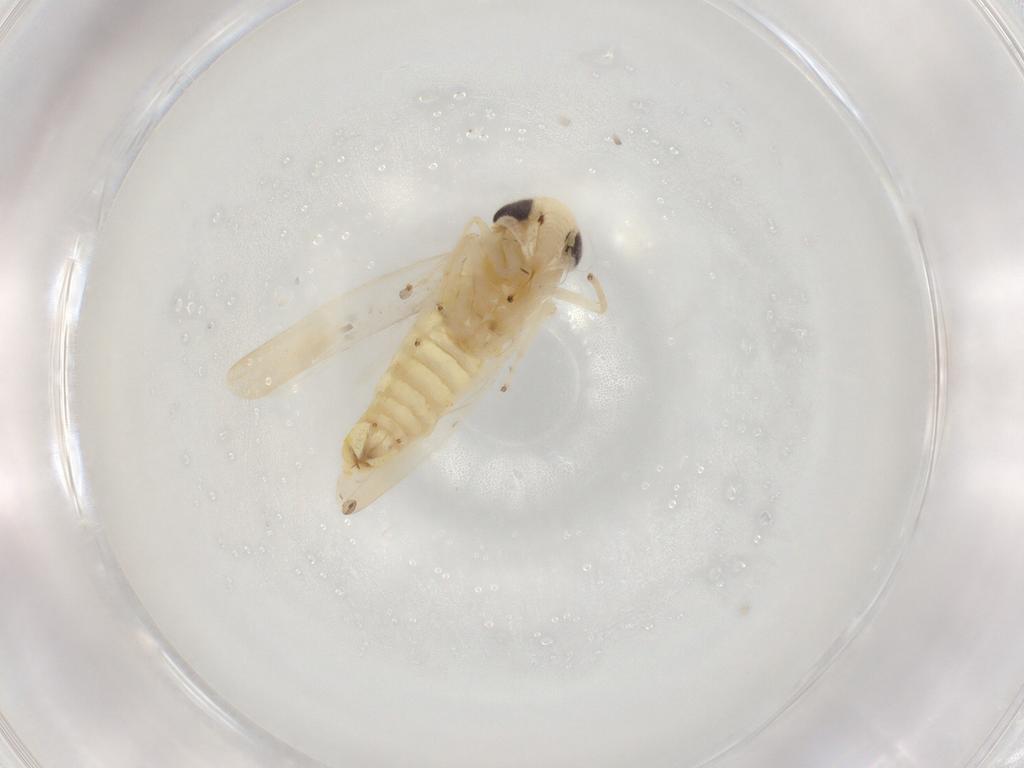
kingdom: Animalia
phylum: Arthropoda
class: Insecta
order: Hemiptera
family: Cicadellidae
